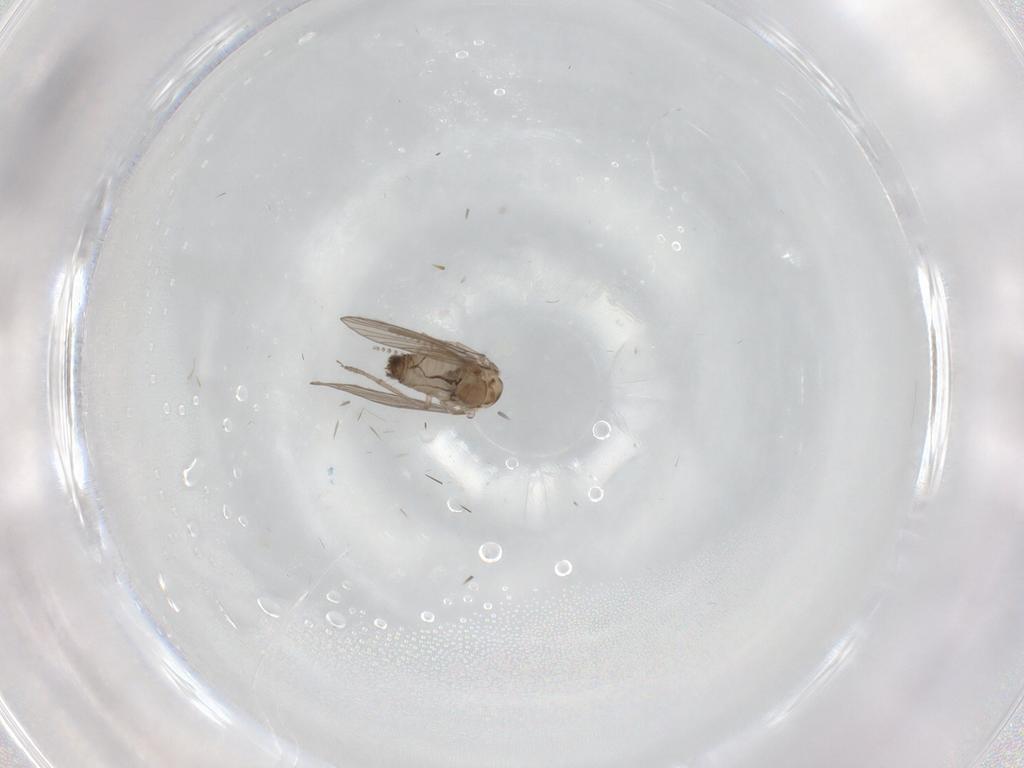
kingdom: Animalia
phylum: Arthropoda
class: Insecta
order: Diptera
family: Psychodidae
